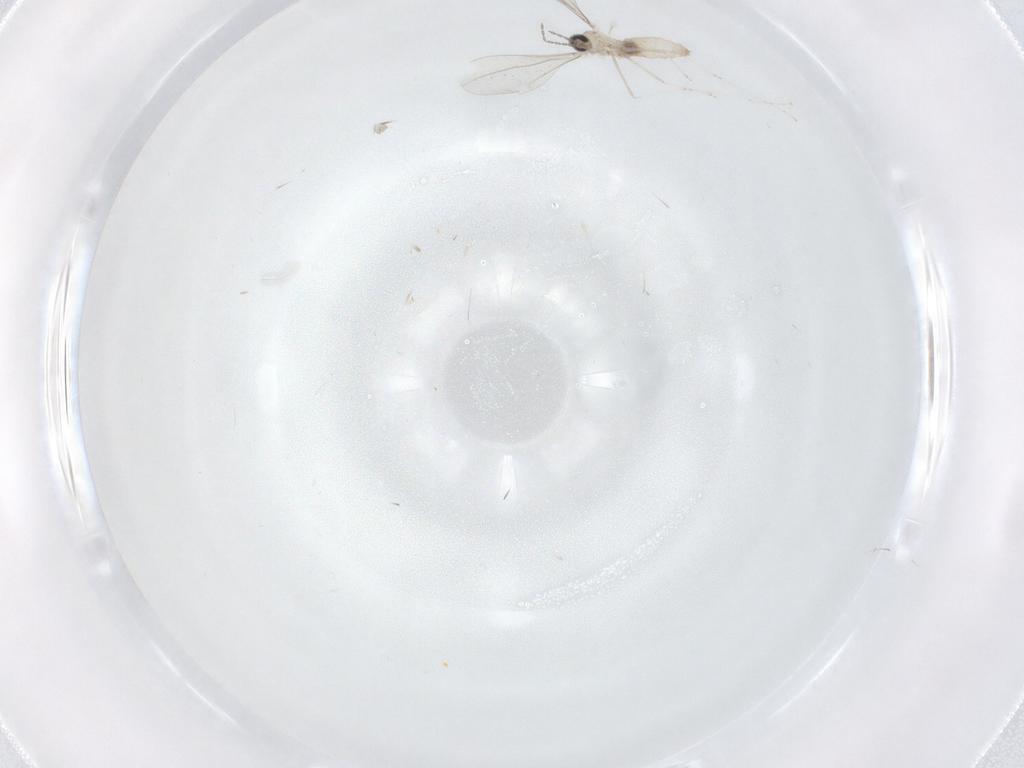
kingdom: Animalia
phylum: Arthropoda
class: Insecta
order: Diptera
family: Cecidomyiidae
